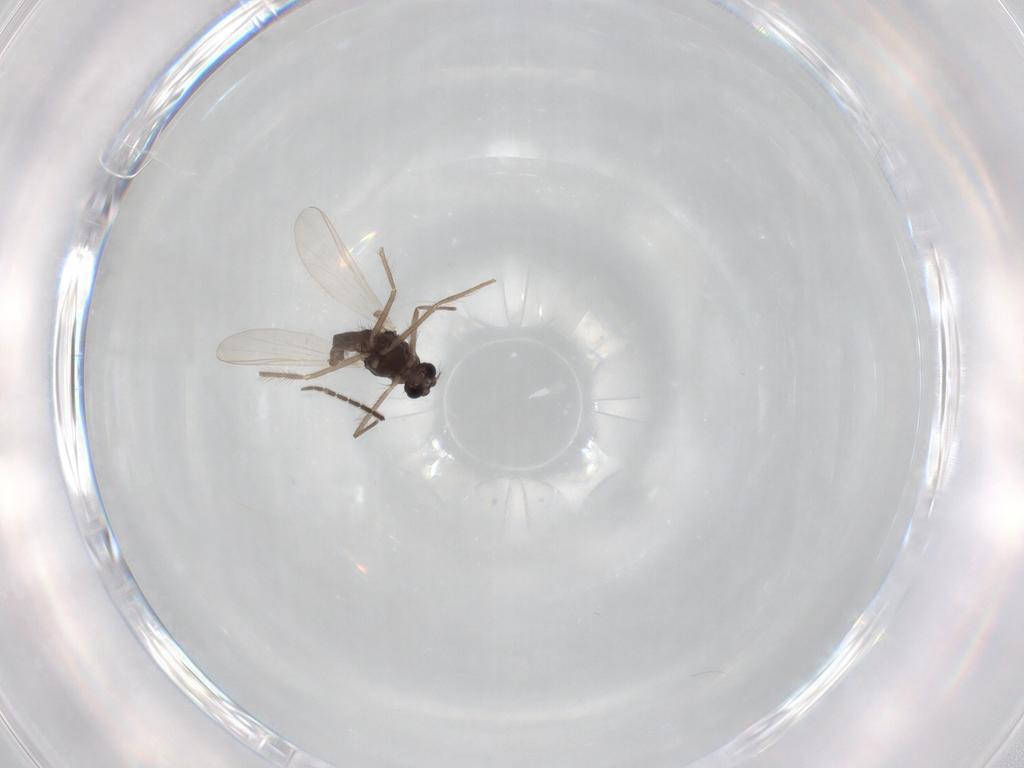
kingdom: Animalia
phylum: Arthropoda
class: Insecta
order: Diptera
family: Chironomidae
